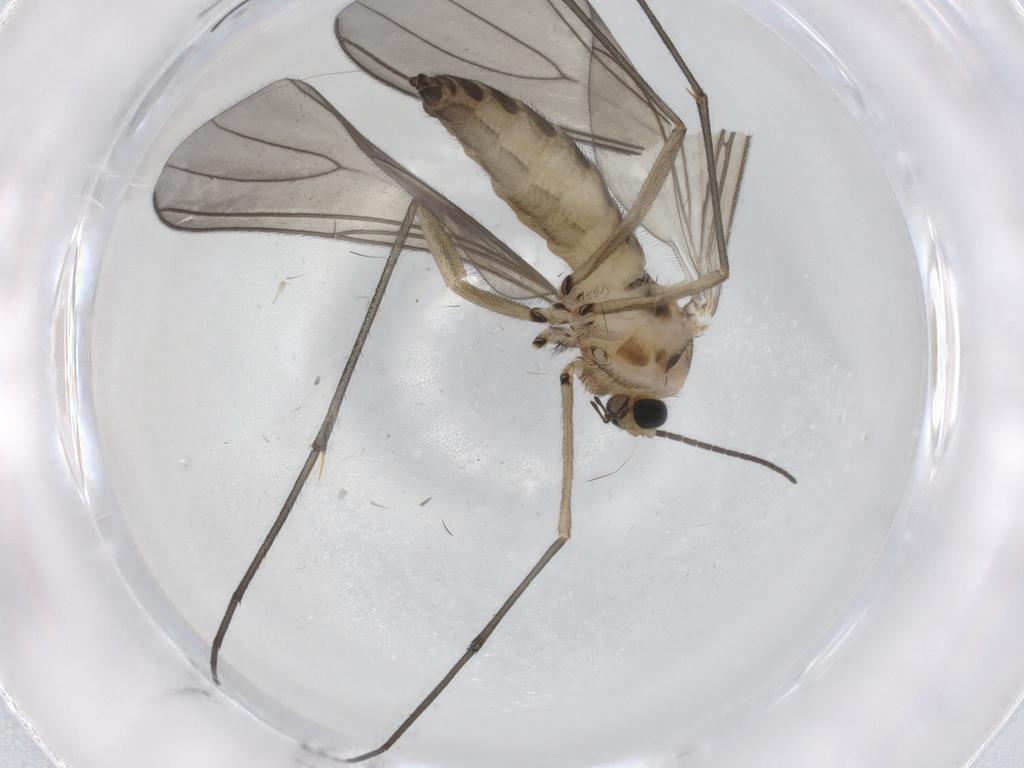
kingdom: Animalia
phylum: Arthropoda
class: Insecta
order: Diptera
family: Sciaridae
